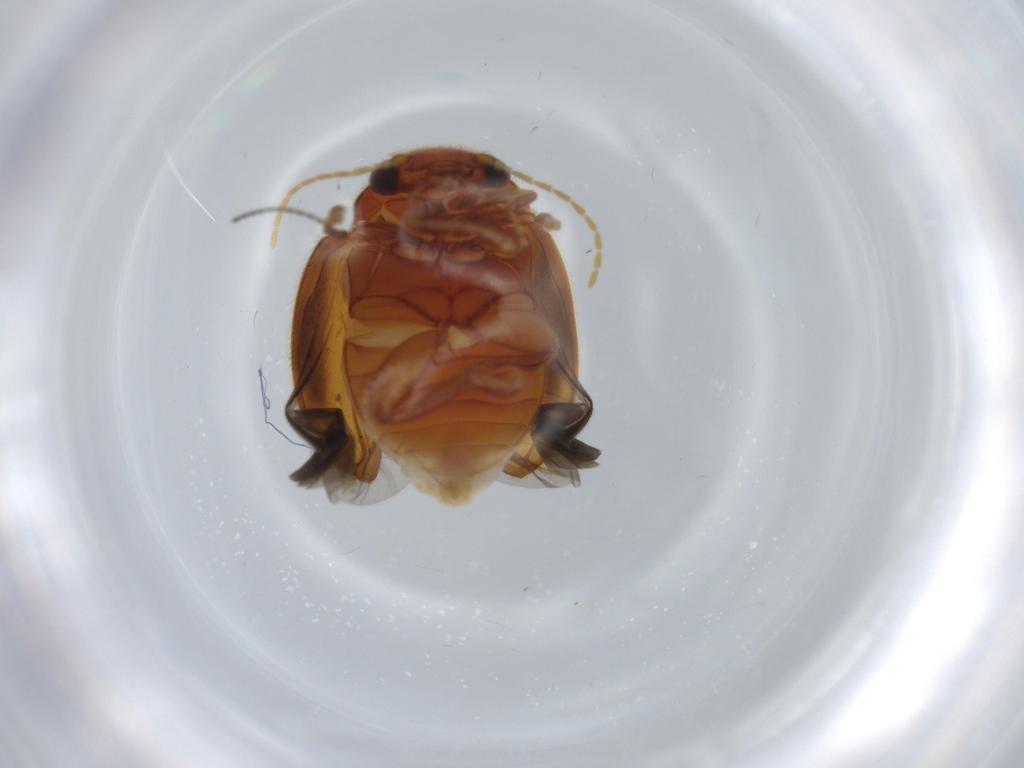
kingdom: Animalia
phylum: Arthropoda
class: Insecta
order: Coleoptera
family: Scirtidae
